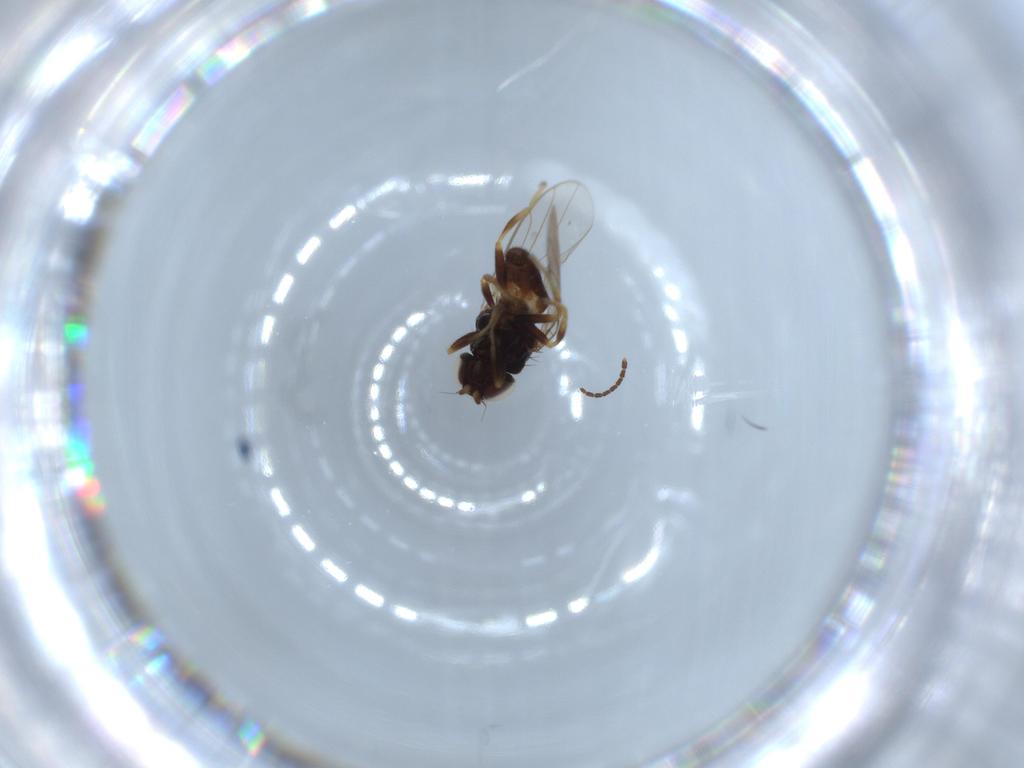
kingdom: Animalia
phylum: Arthropoda
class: Insecta
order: Diptera
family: Chloropidae
